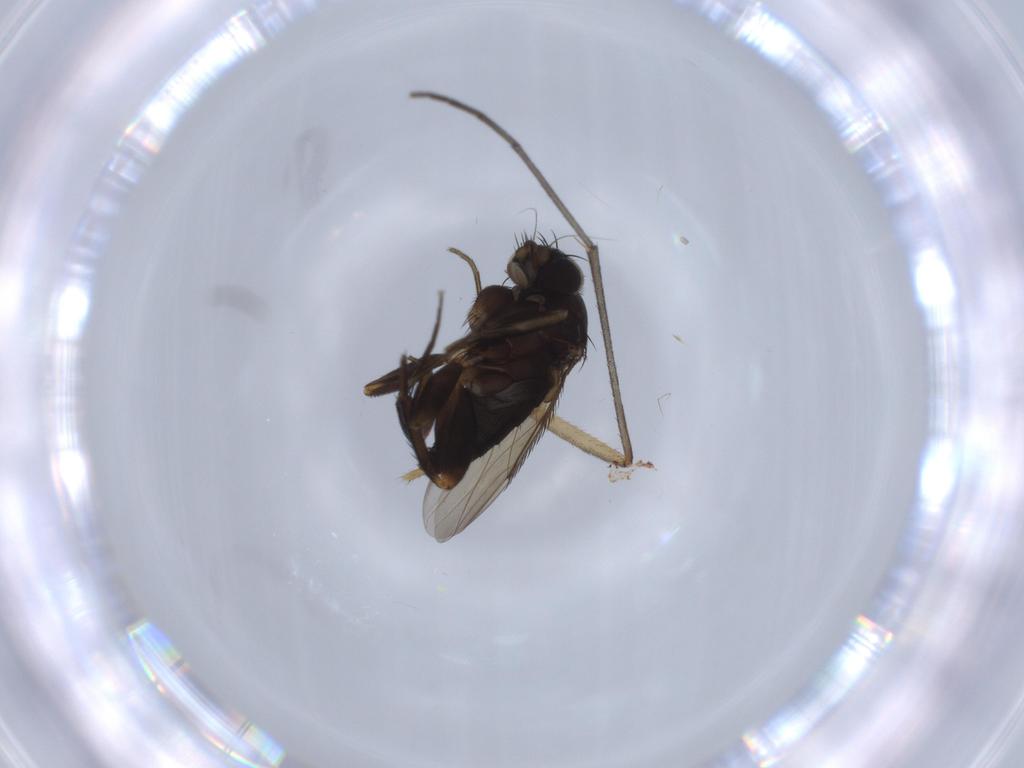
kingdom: Animalia
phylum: Arthropoda
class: Insecta
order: Diptera
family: Phoridae
